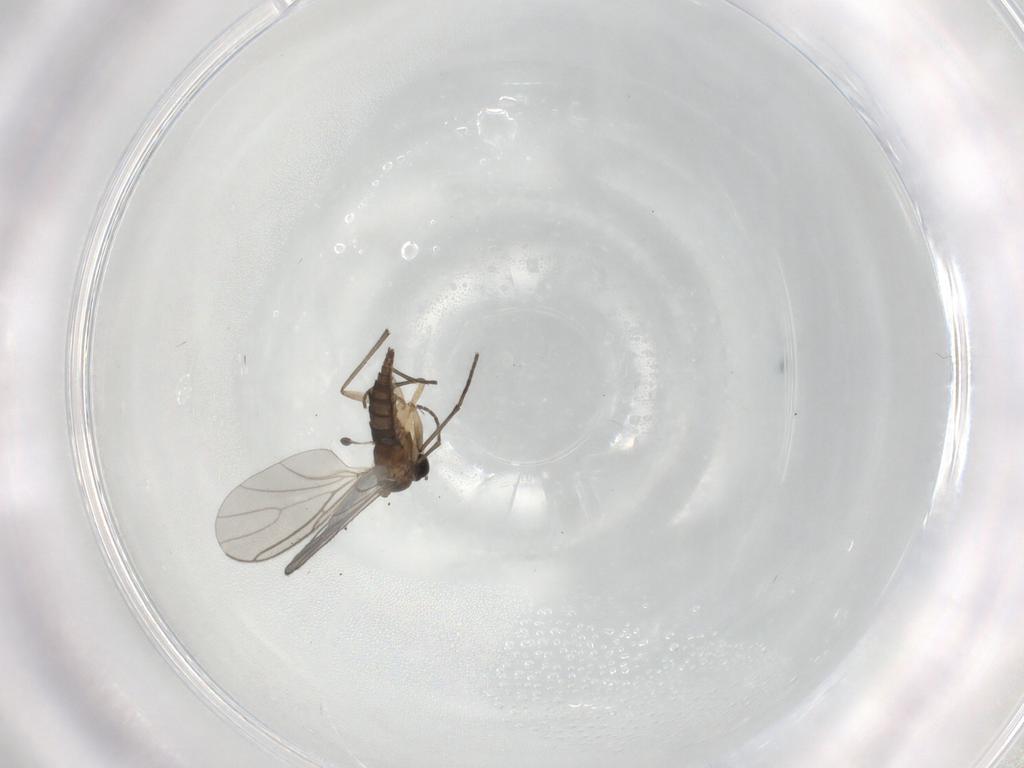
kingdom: Animalia
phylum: Arthropoda
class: Insecta
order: Diptera
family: Sciaridae
